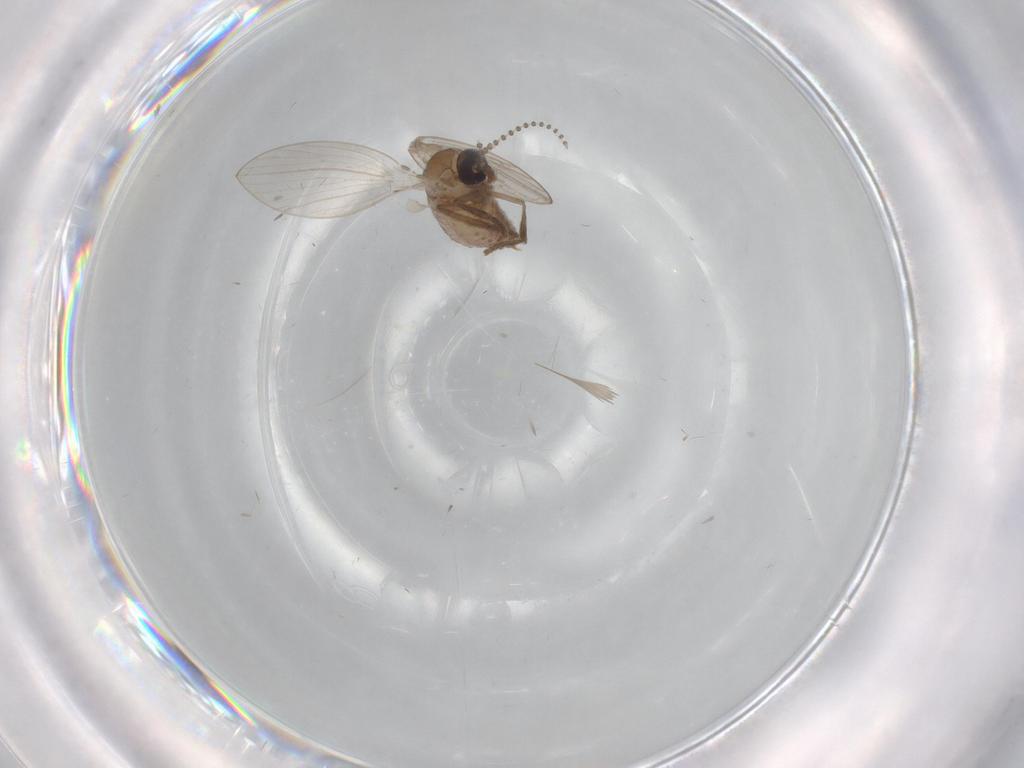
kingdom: Animalia
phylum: Arthropoda
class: Insecta
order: Diptera
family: Psychodidae
